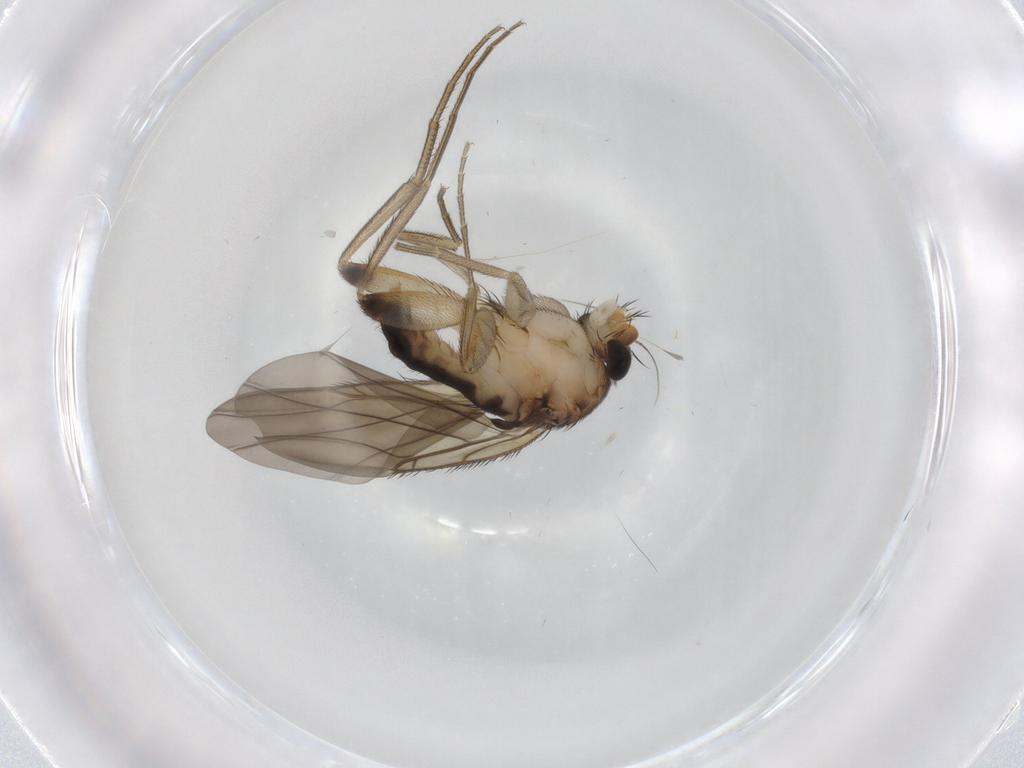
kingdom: Animalia
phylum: Arthropoda
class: Insecta
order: Diptera
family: Phoridae
